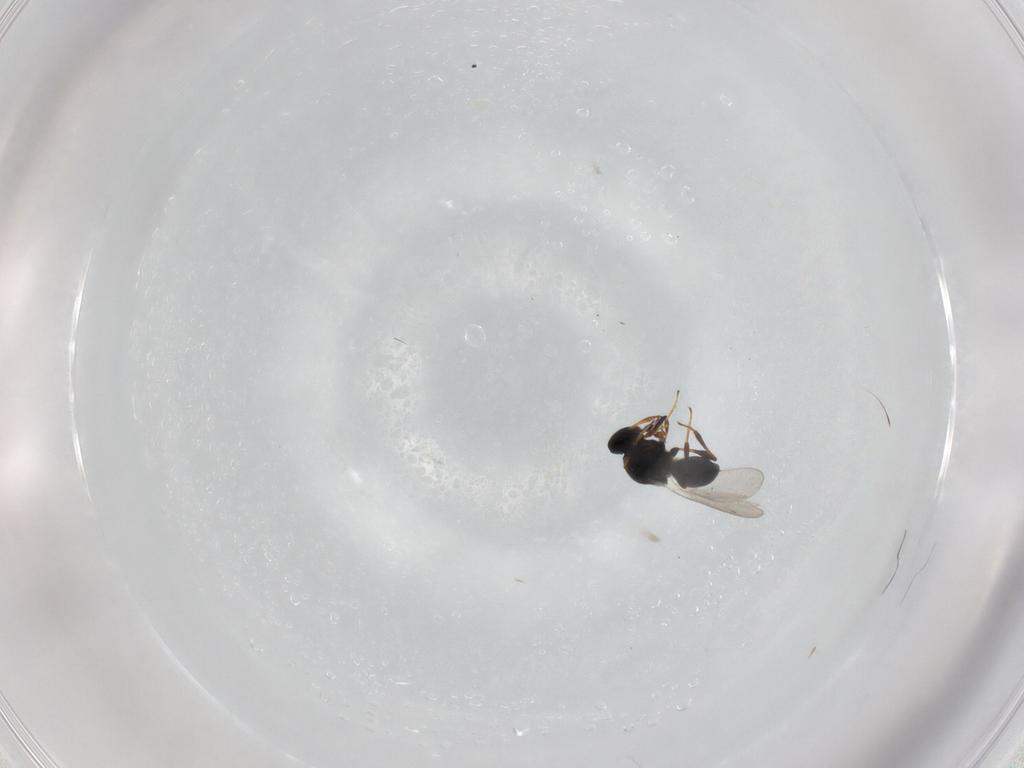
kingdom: Animalia
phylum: Arthropoda
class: Insecta
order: Hymenoptera
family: Platygastridae
